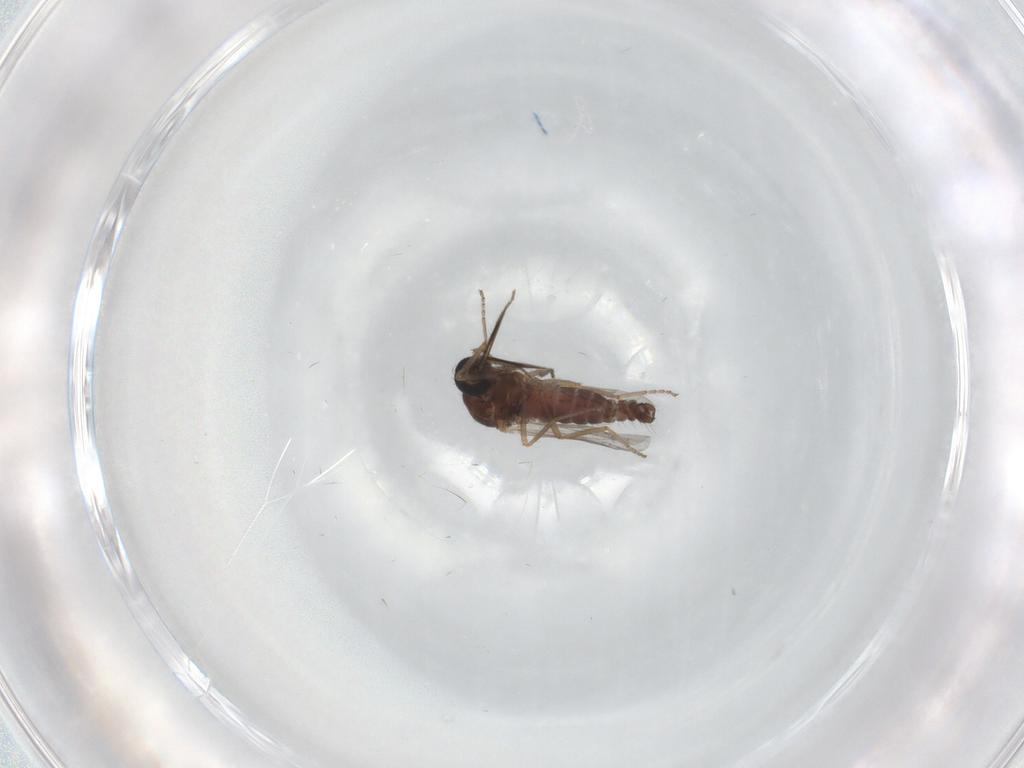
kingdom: Animalia
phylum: Arthropoda
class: Insecta
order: Diptera
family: Ceratopogonidae
